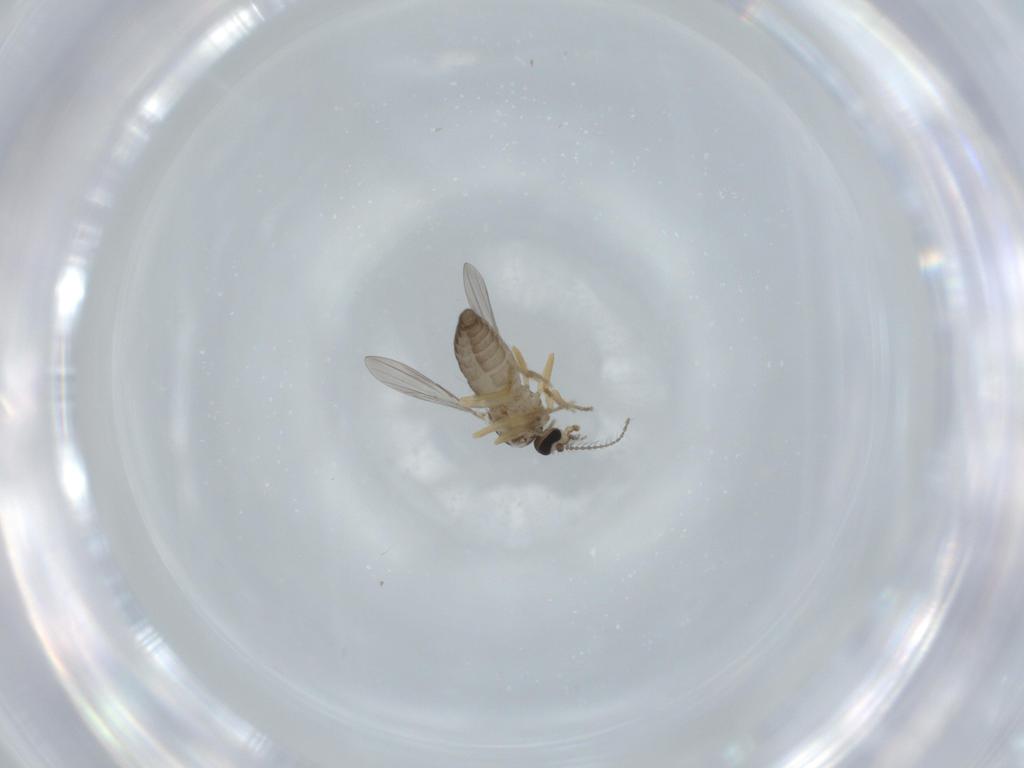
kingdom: Animalia
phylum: Arthropoda
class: Insecta
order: Diptera
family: Ceratopogonidae
